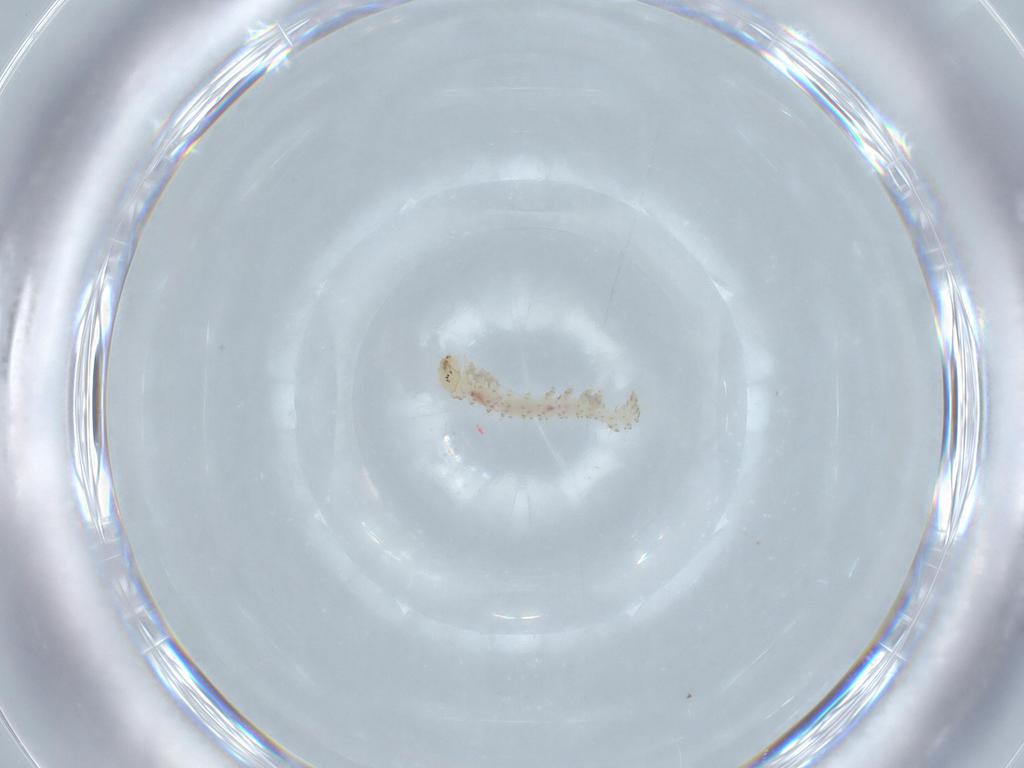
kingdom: Animalia
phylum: Arthropoda
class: Insecta
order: Lepidoptera
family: Erebidae
